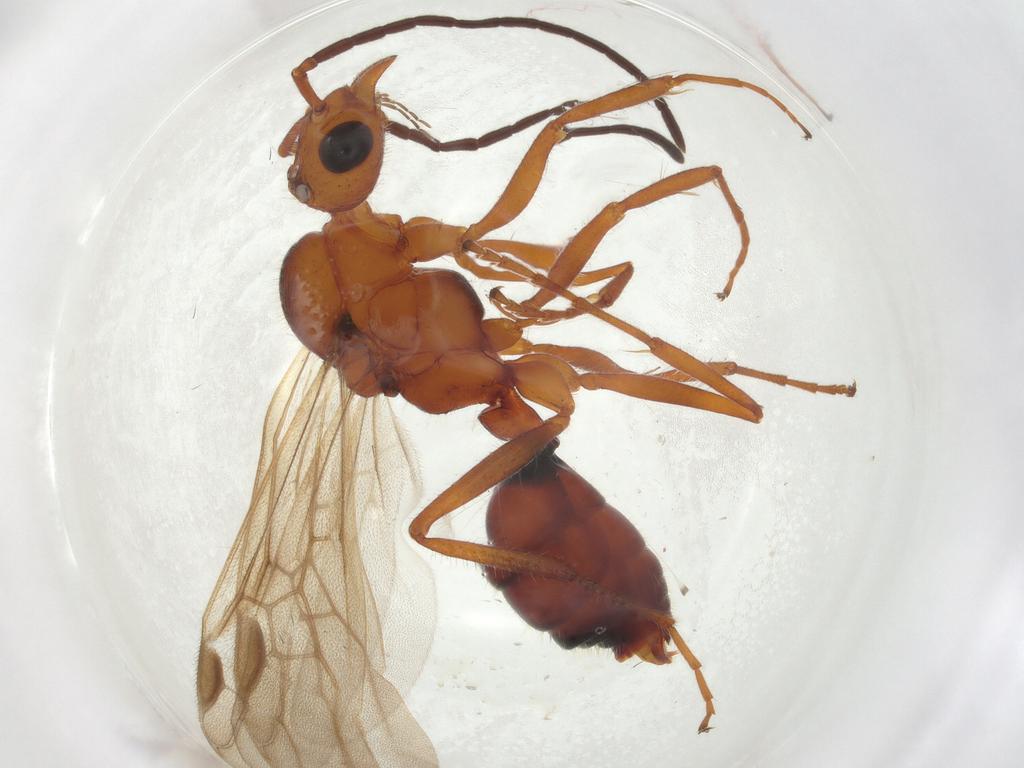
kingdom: Animalia
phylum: Arthropoda
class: Insecta
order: Hymenoptera
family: Formicidae
